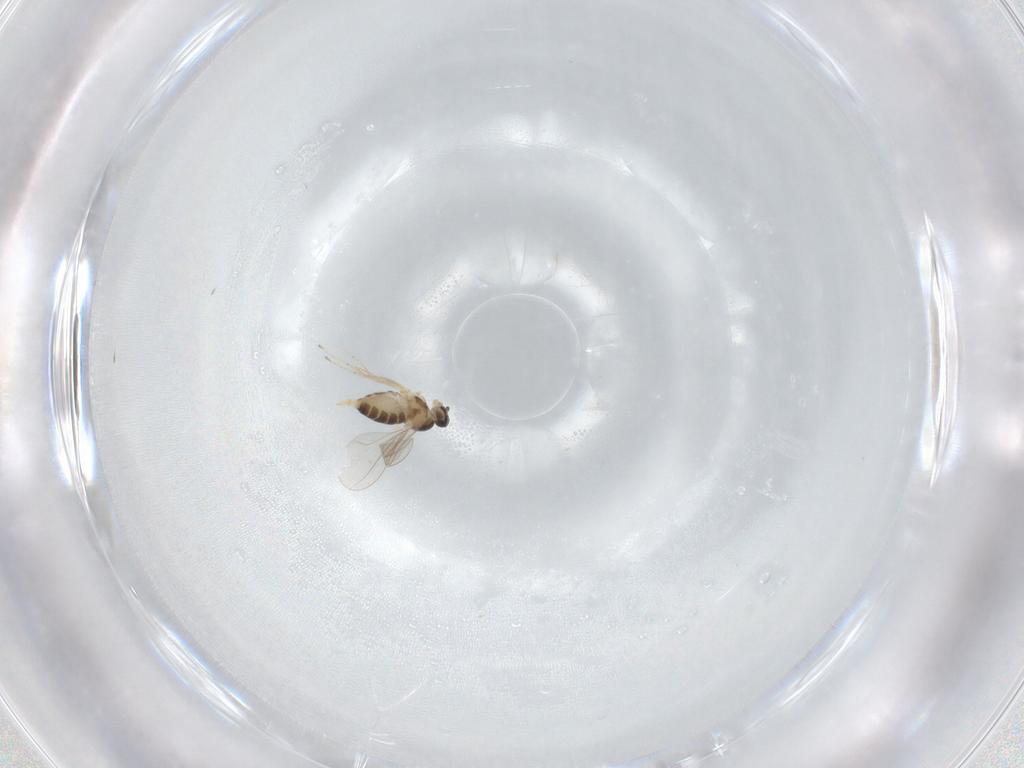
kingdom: Animalia
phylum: Arthropoda
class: Insecta
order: Diptera
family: Cecidomyiidae
